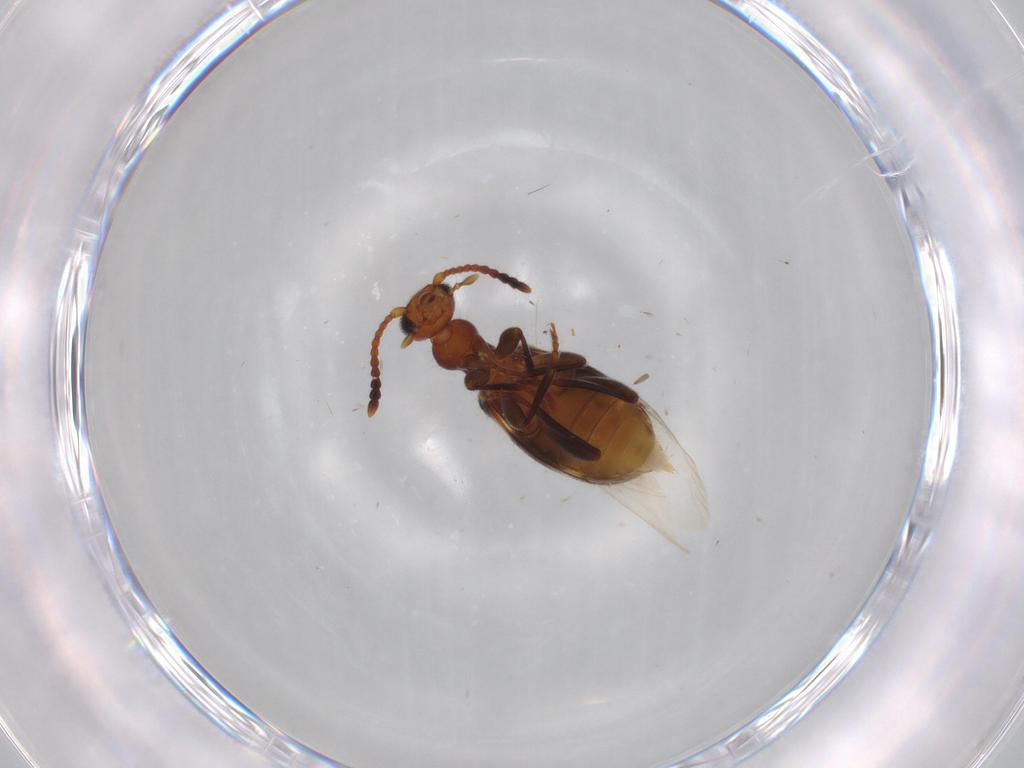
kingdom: Animalia
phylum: Arthropoda
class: Insecta
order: Coleoptera
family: Anthicidae
